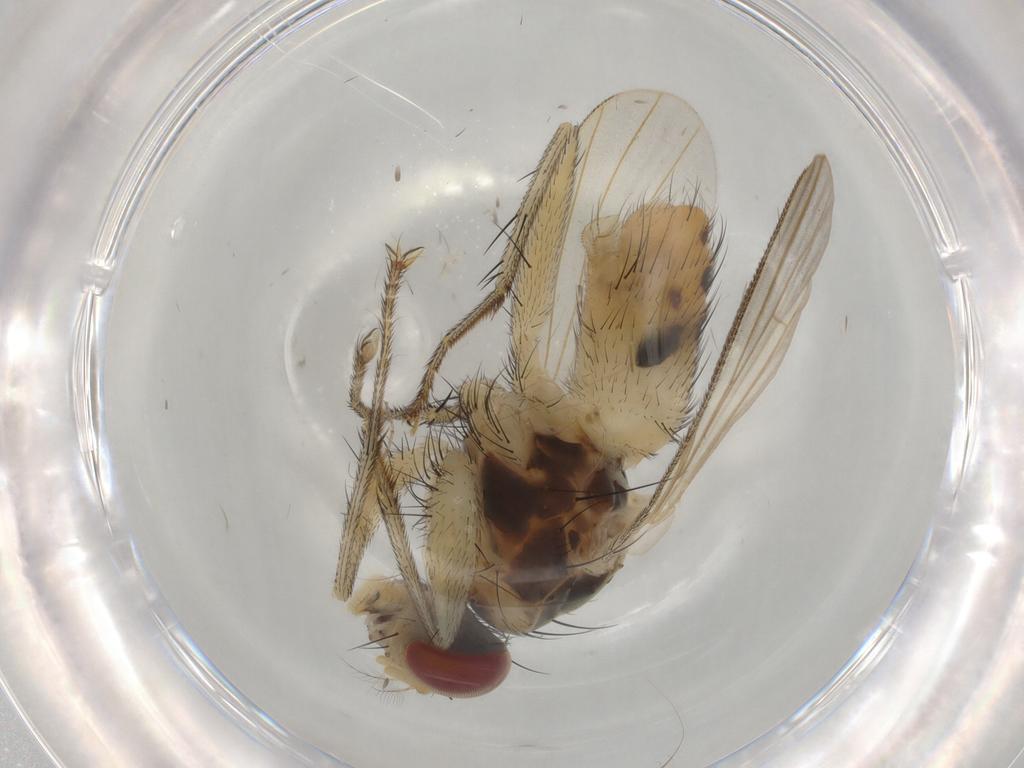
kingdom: Animalia
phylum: Arthropoda
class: Insecta
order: Diptera
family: Muscidae
